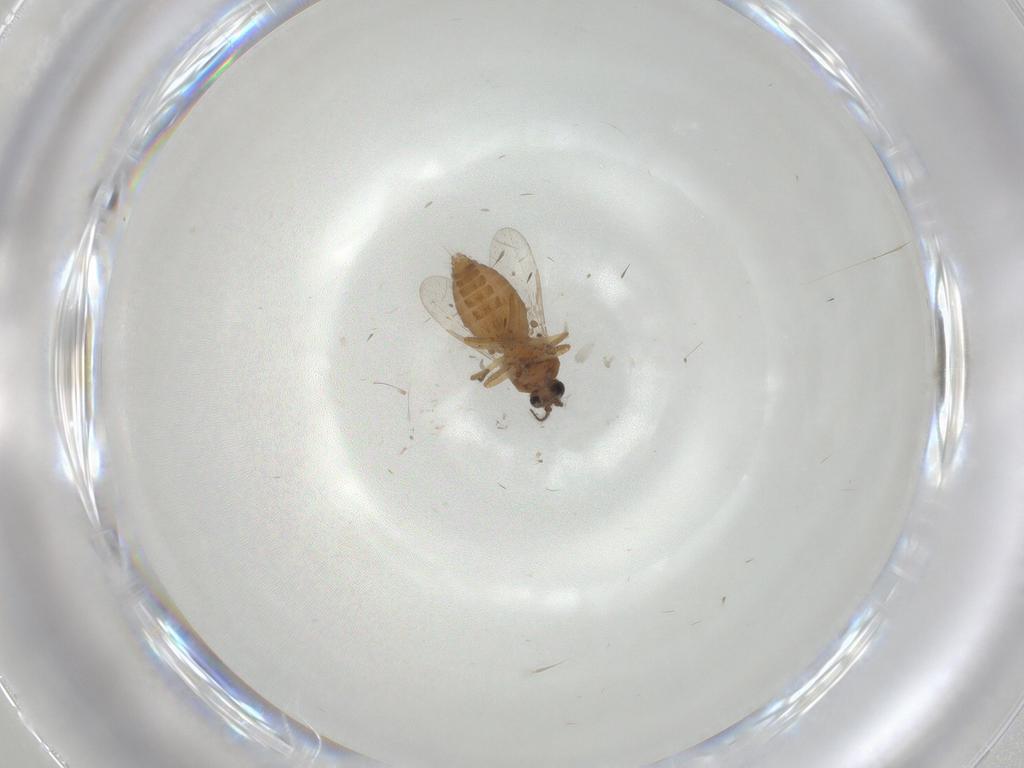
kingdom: Animalia
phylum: Arthropoda
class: Insecta
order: Diptera
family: Ceratopogonidae
